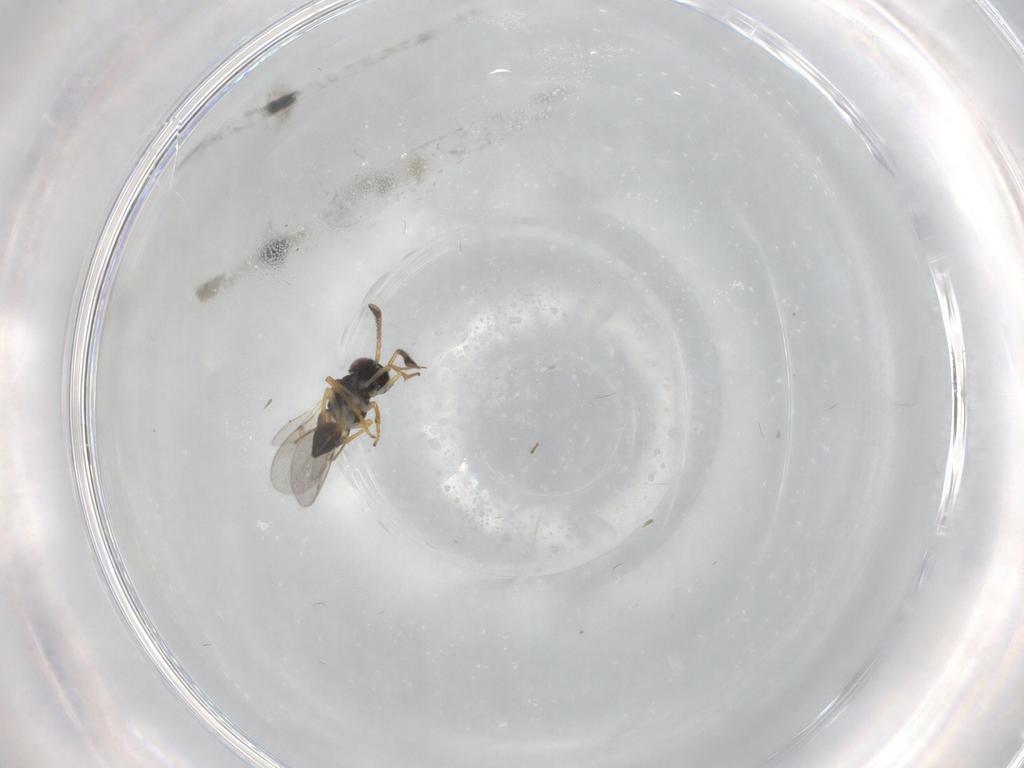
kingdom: Animalia
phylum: Arthropoda
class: Insecta
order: Hymenoptera
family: Encyrtidae
